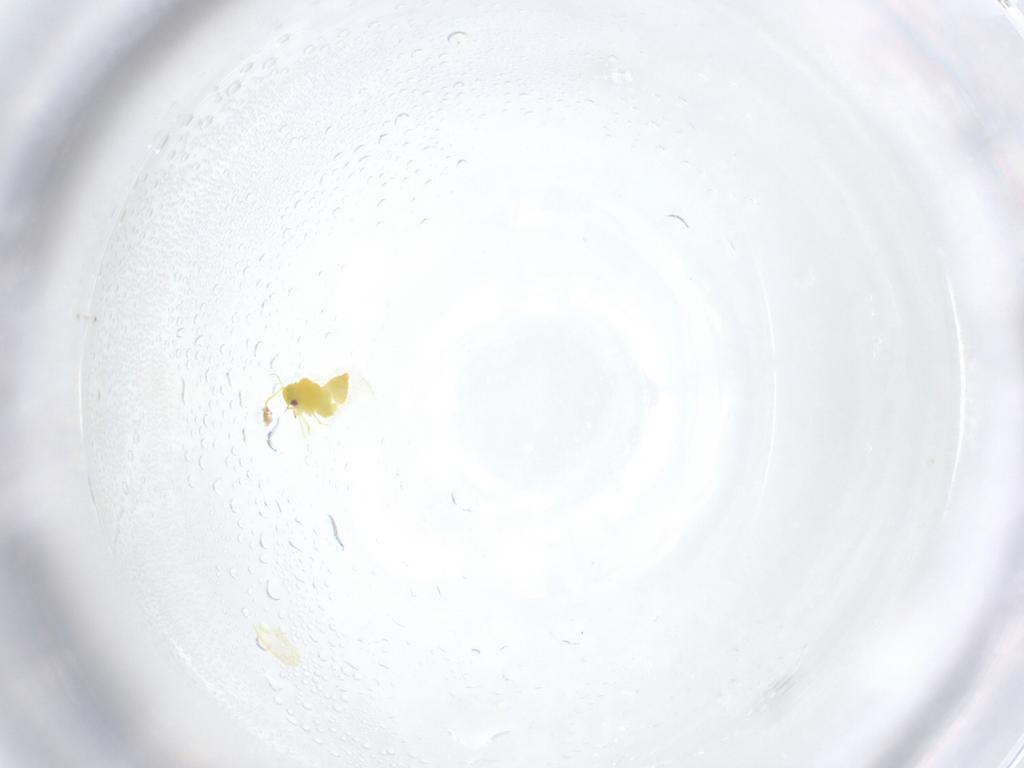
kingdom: Animalia
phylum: Arthropoda
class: Insecta
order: Hemiptera
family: Aleyrodidae
